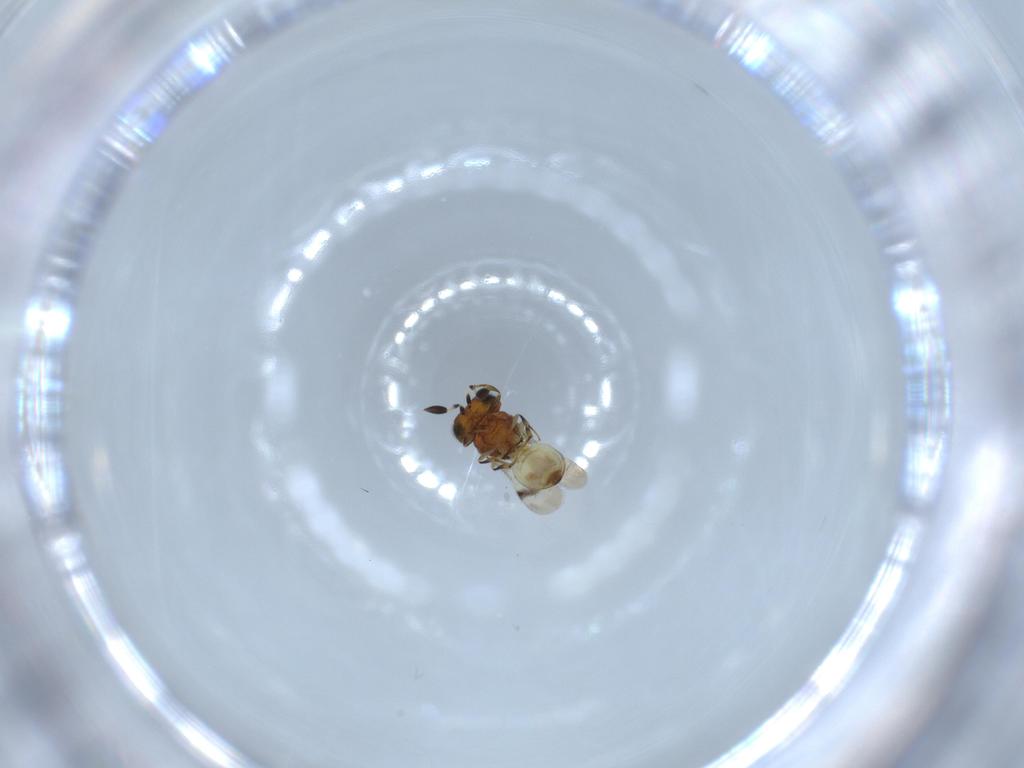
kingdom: Animalia
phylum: Arthropoda
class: Arachnida
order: Araneae
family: Pholcidae
